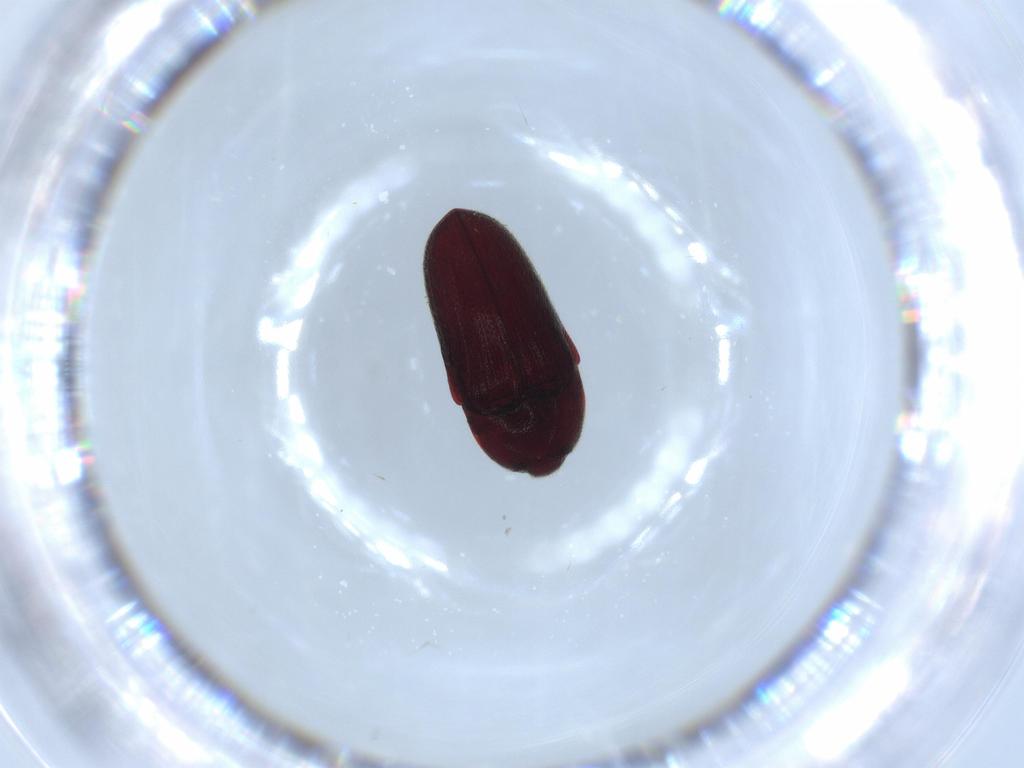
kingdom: Animalia
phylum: Arthropoda
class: Insecta
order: Coleoptera
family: Throscidae
